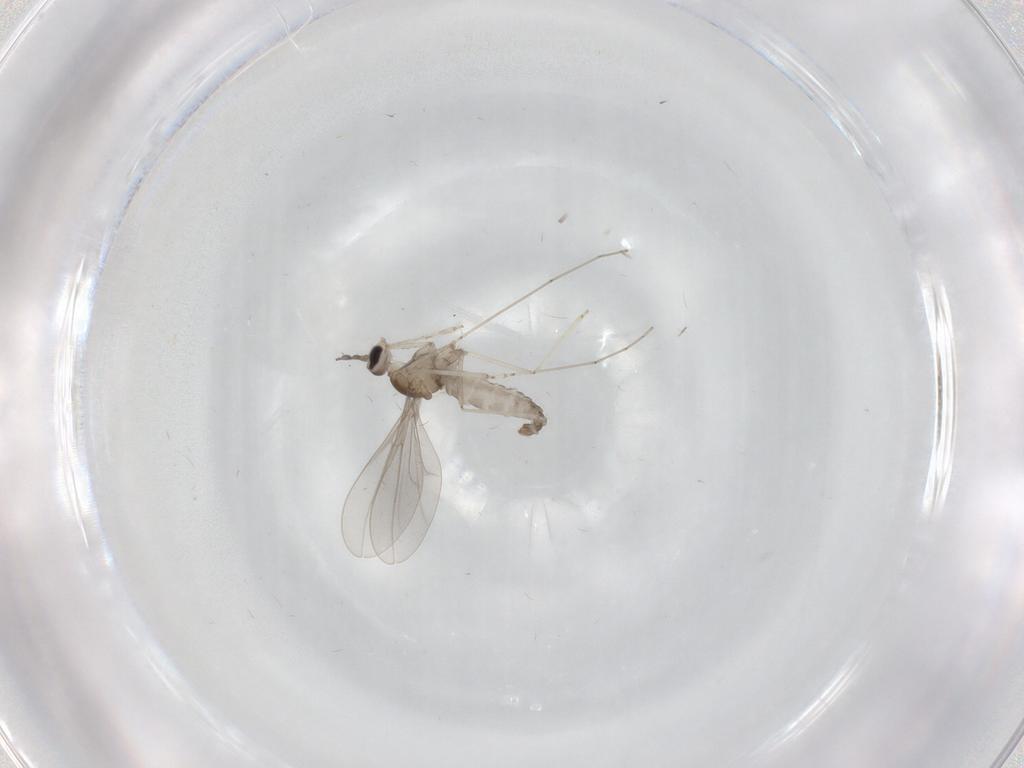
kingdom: Animalia
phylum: Arthropoda
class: Insecta
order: Diptera
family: Cecidomyiidae
